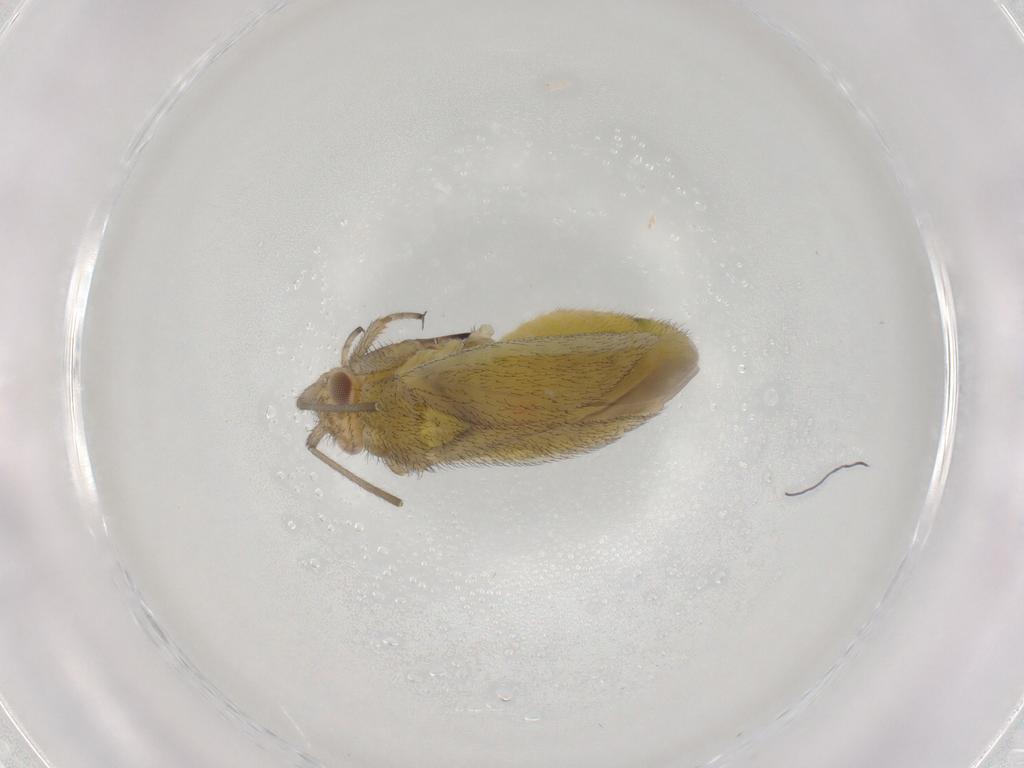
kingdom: Animalia
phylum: Arthropoda
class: Insecta
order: Hemiptera
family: Miridae
